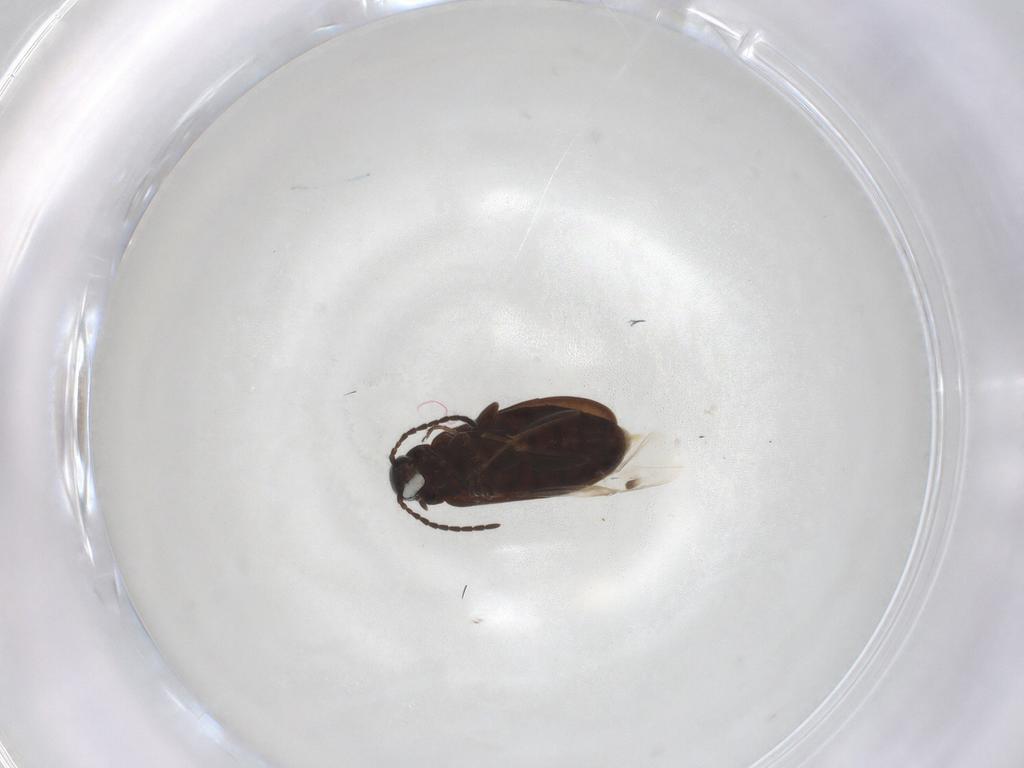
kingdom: Animalia
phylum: Arthropoda
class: Insecta
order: Coleoptera
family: Scraptiidae
